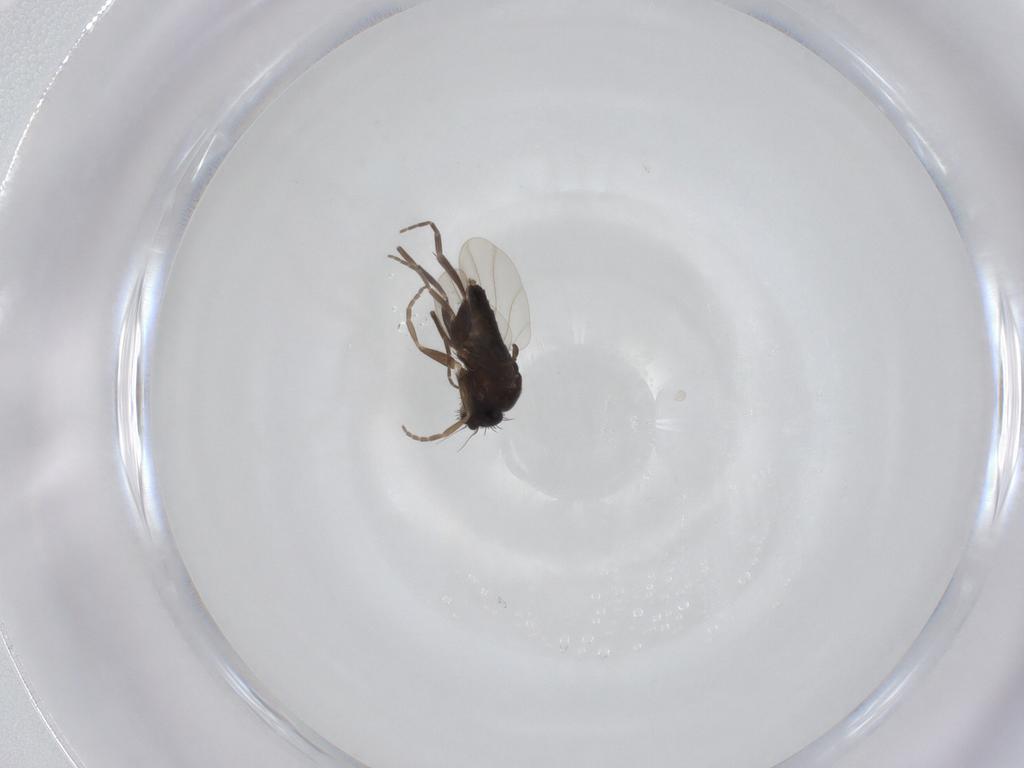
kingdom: Animalia
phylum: Arthropoda
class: Insecta
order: Diptera
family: Phoridae
